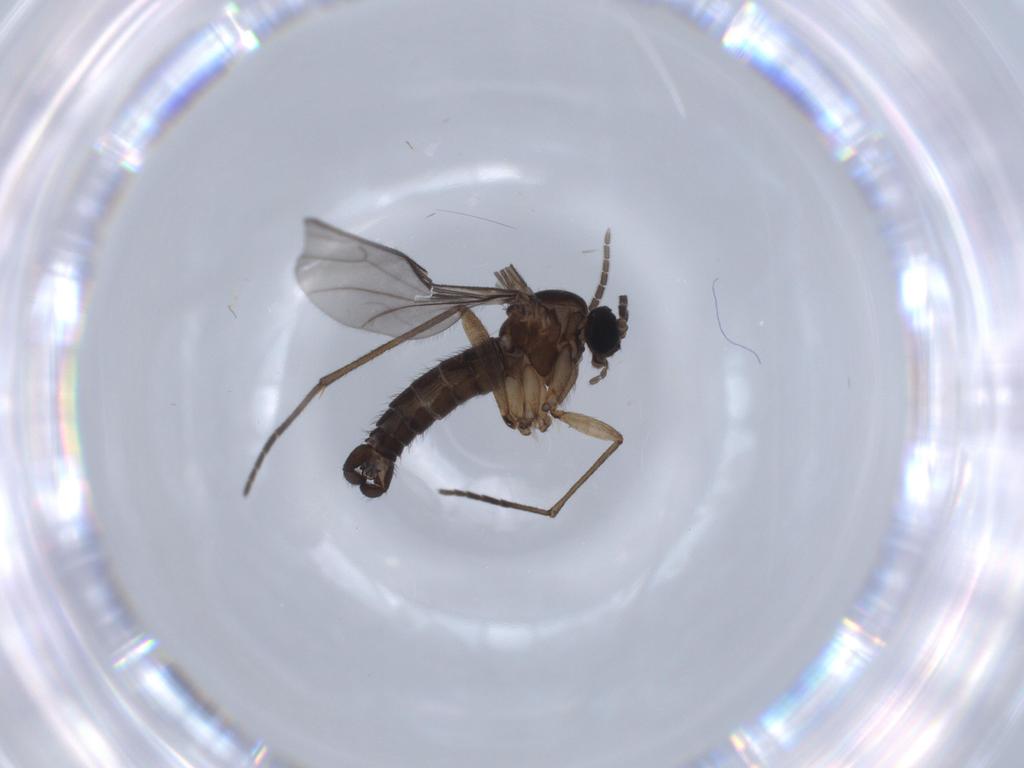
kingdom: Animalia
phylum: Arthropoda
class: Insecta
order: Diptera
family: Sciaridae
